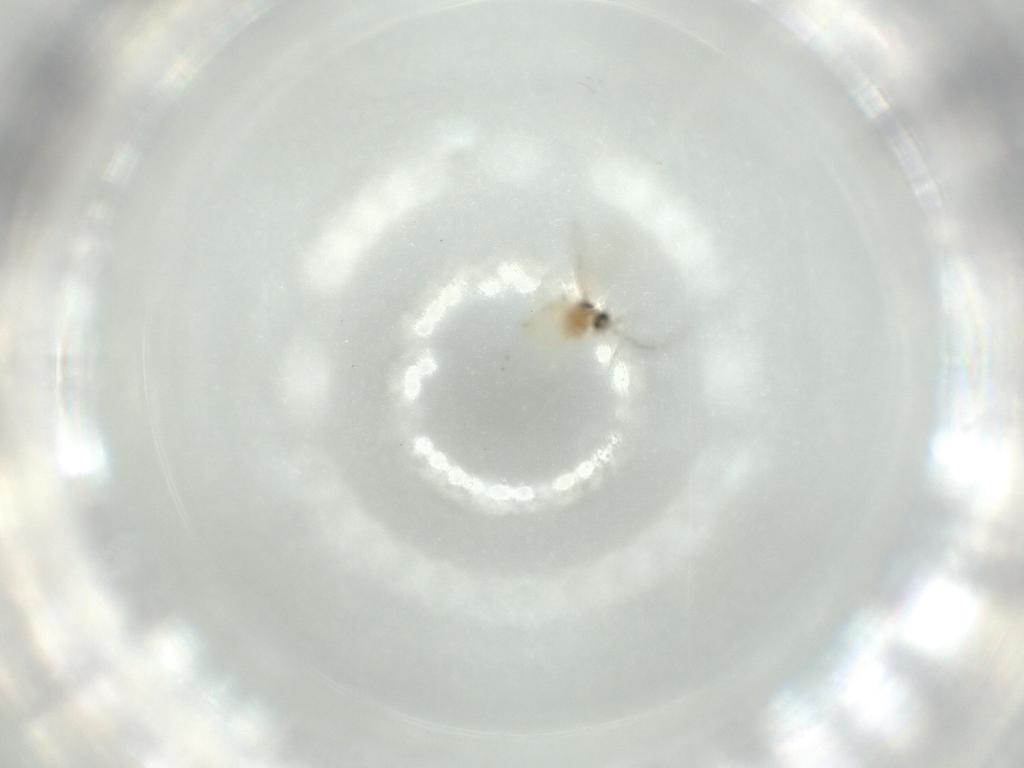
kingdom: Animalia
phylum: Arthropoda
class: Insecta
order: Diptera
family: Cecidomyiidae
